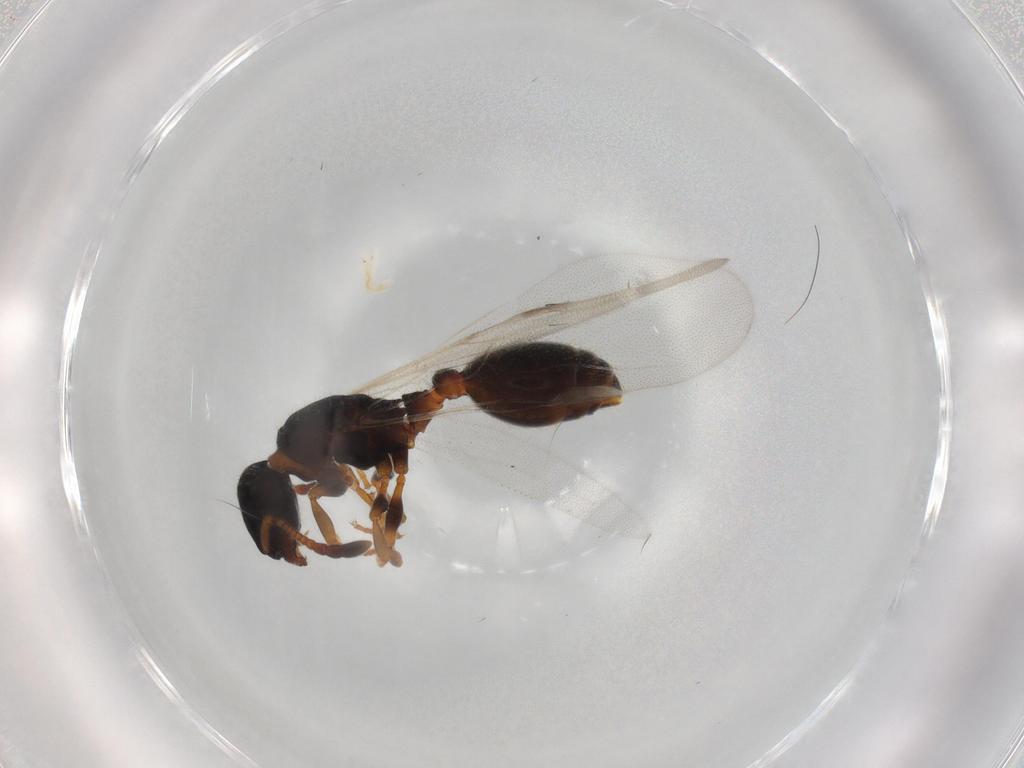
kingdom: Animalia
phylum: Arthropoda
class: Insecta
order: Hymenoptera
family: Formicidae
